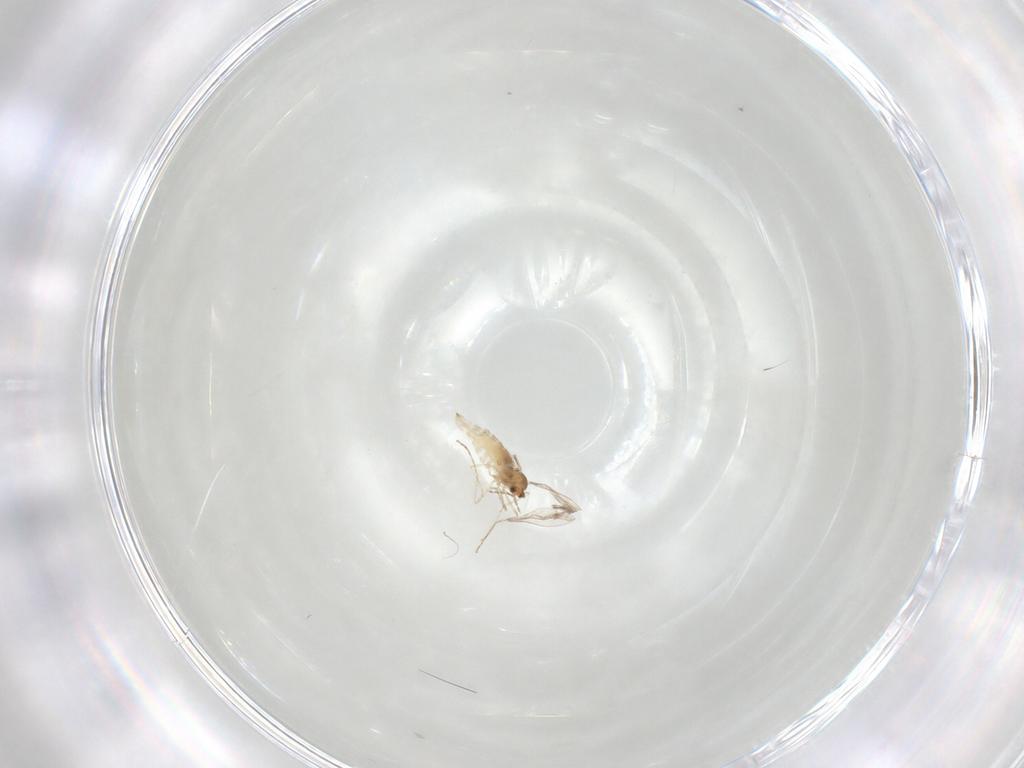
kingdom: Animalia
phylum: Arthropoda
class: Insecta
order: Diptera
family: Cecidomyiidae
